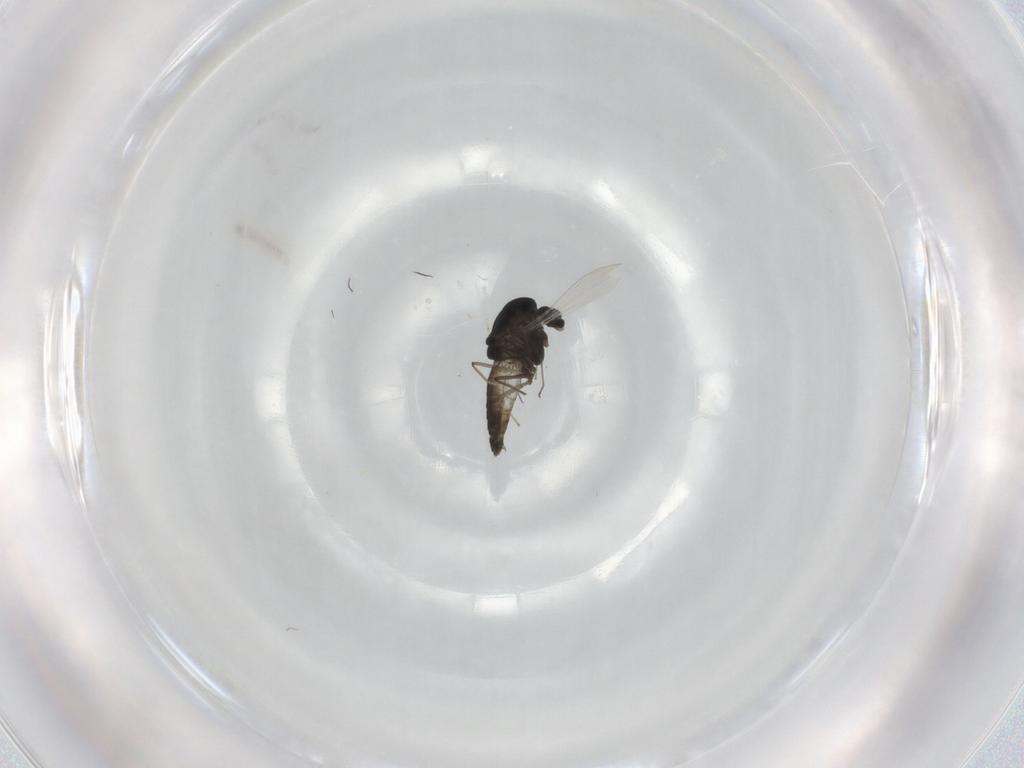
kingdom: Animalia
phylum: Arthropoda
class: Insecta
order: Diptera
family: Chironomidae
